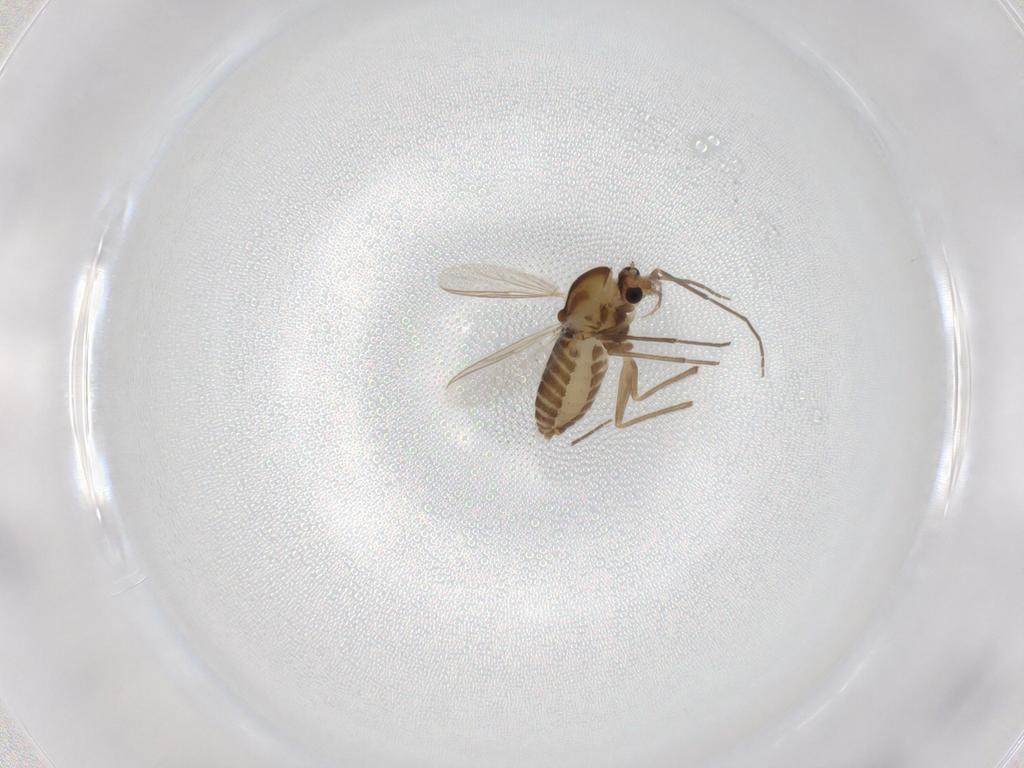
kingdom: Animalia
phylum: Arthropoda
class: Insecta
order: Diptera
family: Chironomidae
